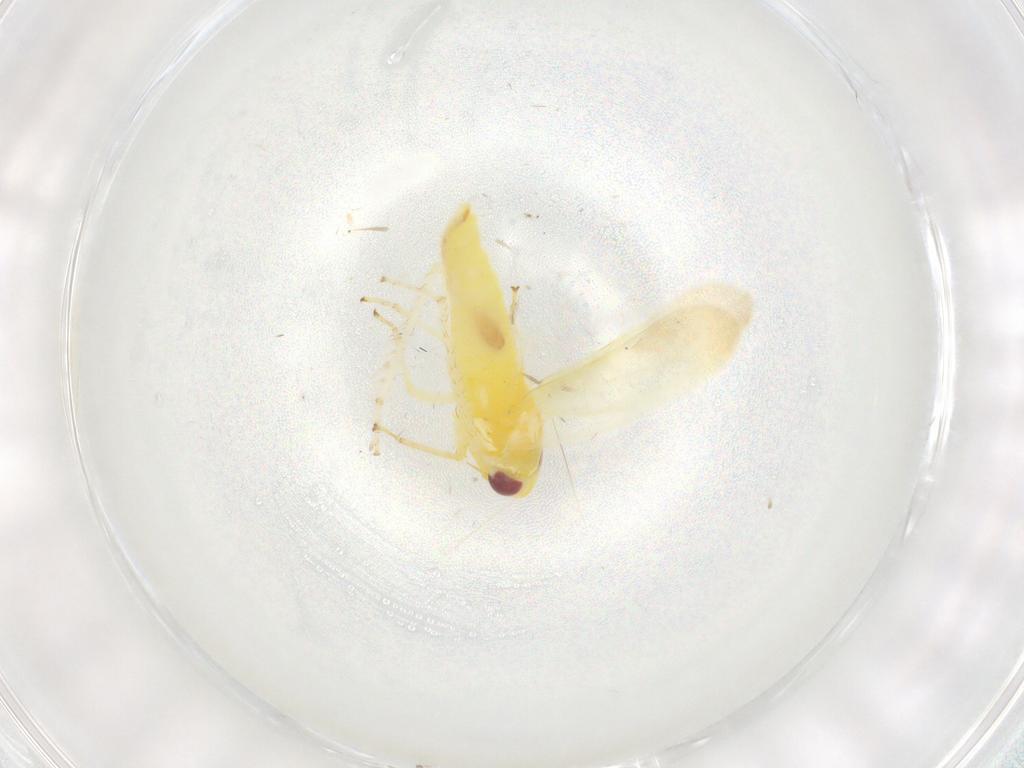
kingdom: Animalia
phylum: Arthropoda
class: Insecta
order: Hemiptera
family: Cicadellidae
